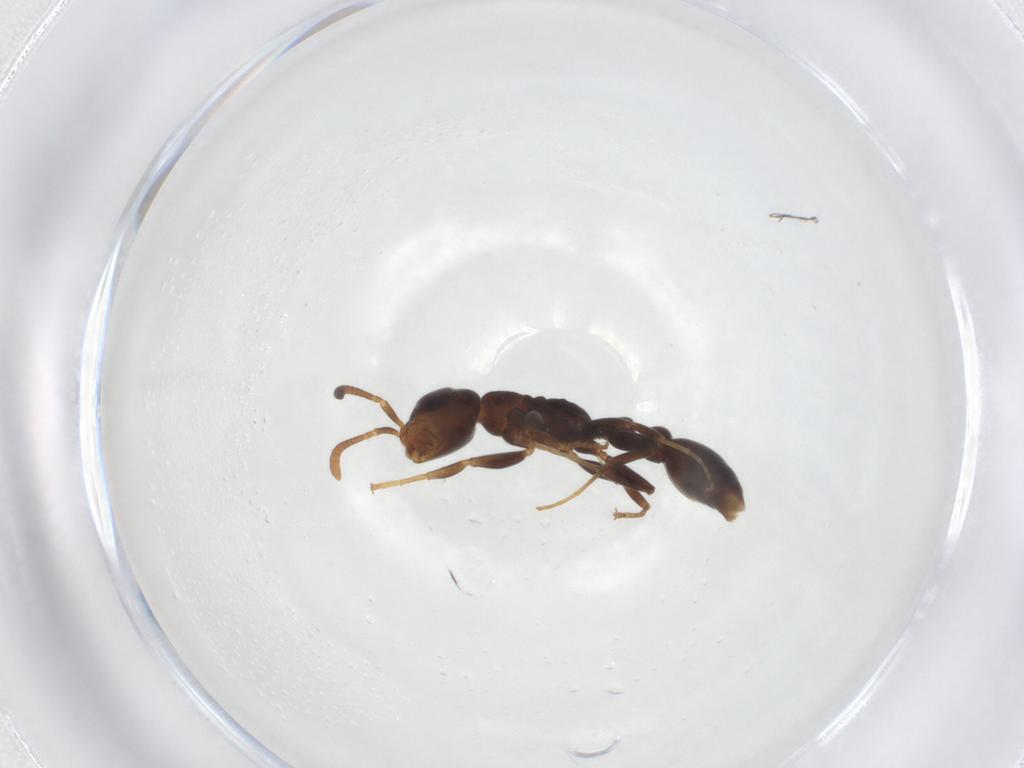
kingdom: Animalia
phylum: Arthropoda
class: Insecta
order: Hymenoptera
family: Formicidae
